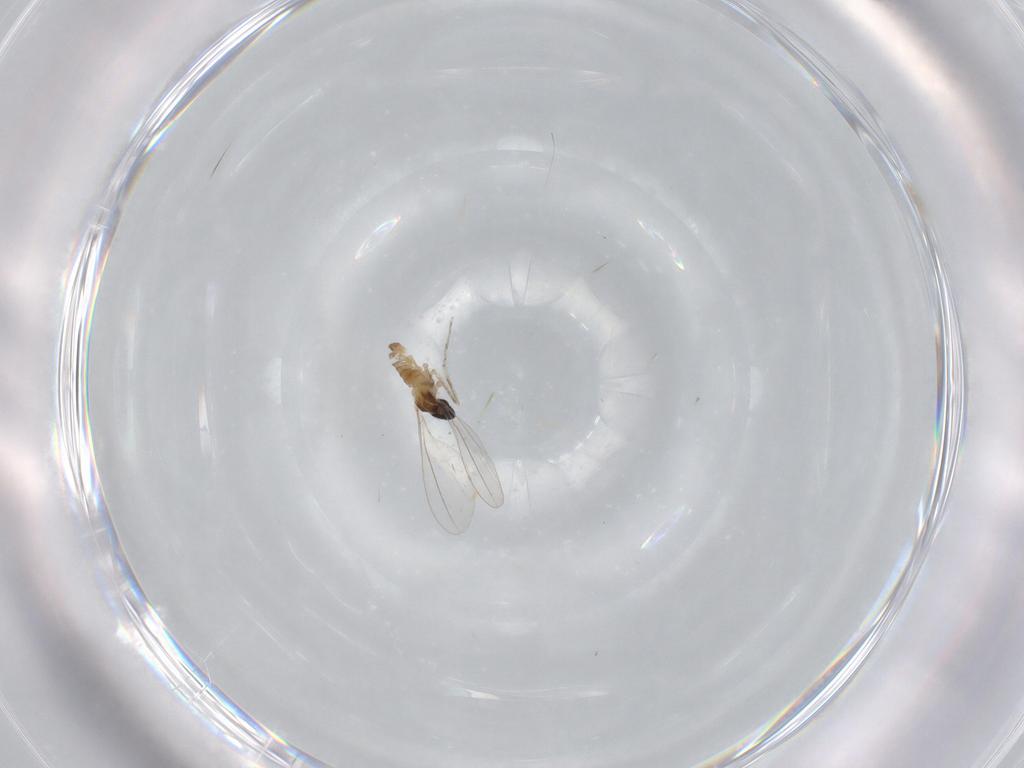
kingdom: Animalia
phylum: Arthropoda
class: Insecta
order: Diptera
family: Cecidomyiidae
